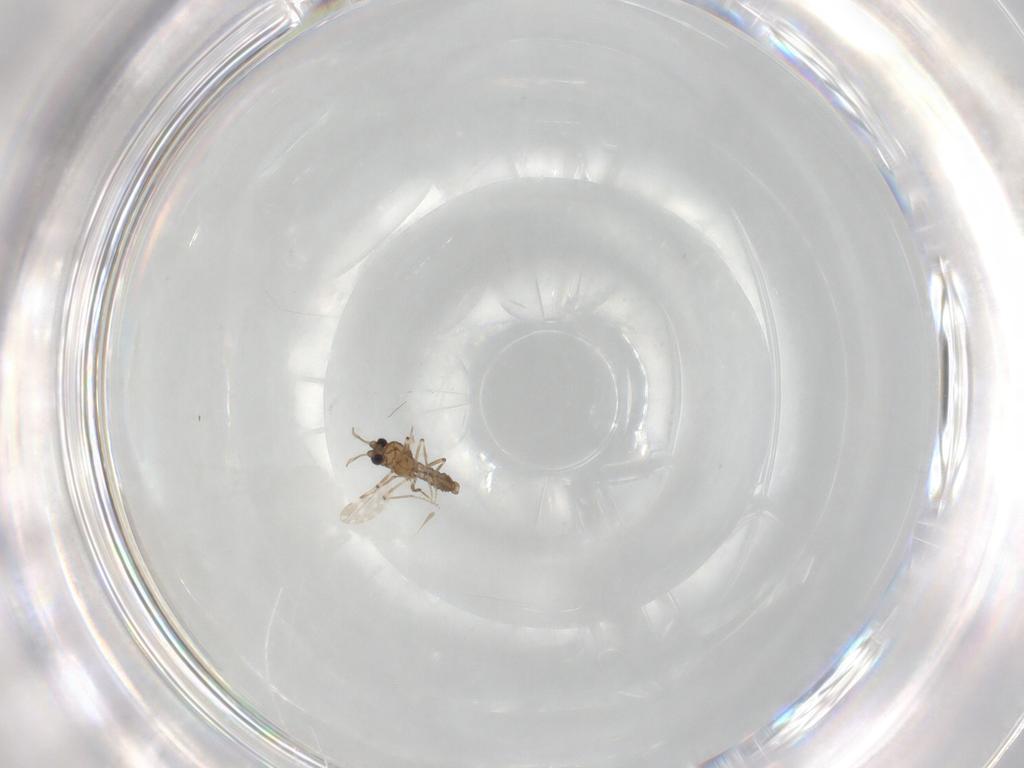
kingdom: Animalia
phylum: Arthropoda
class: Insecta
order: Diptera
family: Ceratopogonidae
